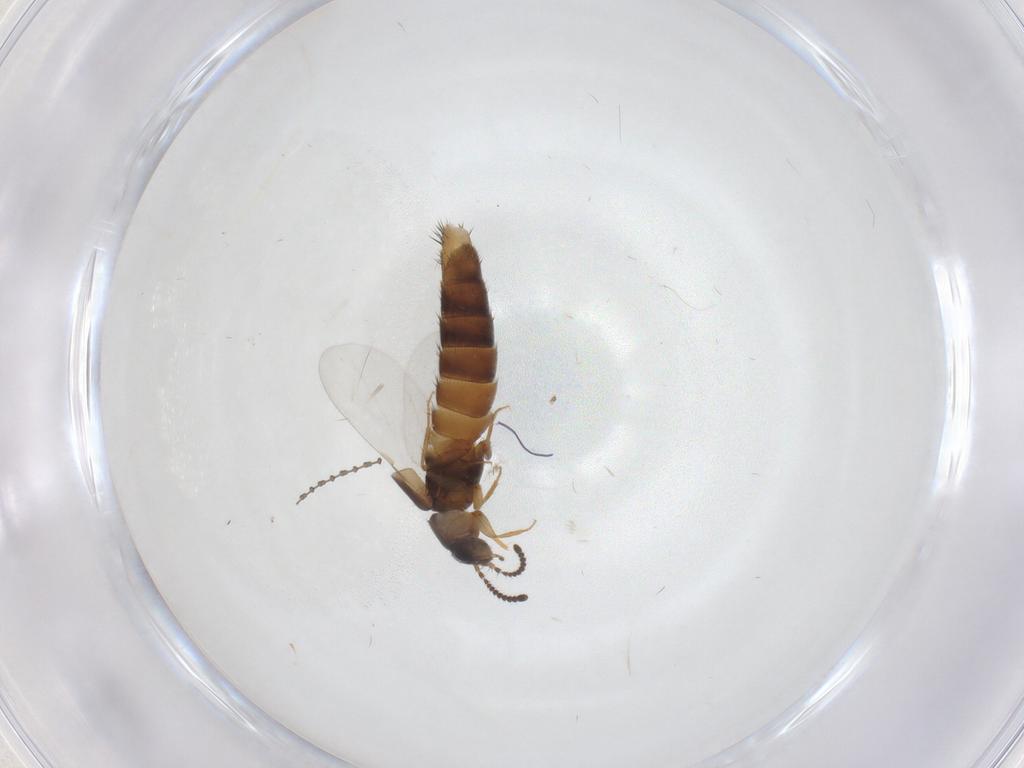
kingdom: Animalia
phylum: Arthropoda
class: Insecta
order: Coleoptera
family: Staphylinidae
